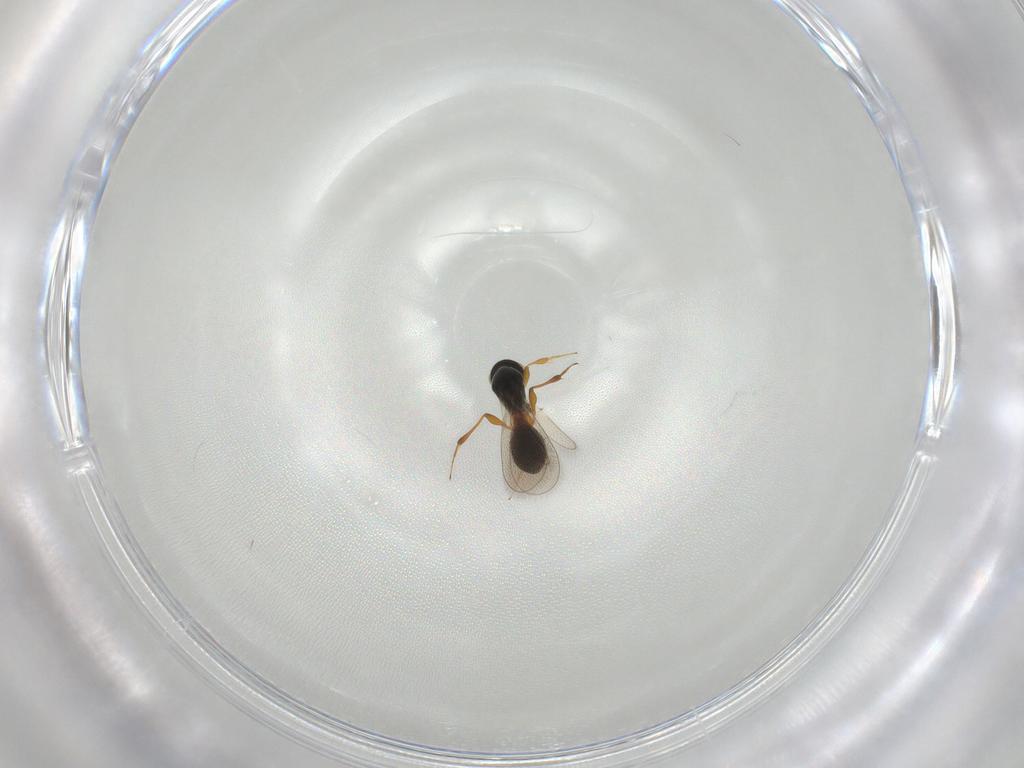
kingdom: Animalia
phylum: Arthropoda
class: Insecta
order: Hymenoptera
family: Platygastridae
